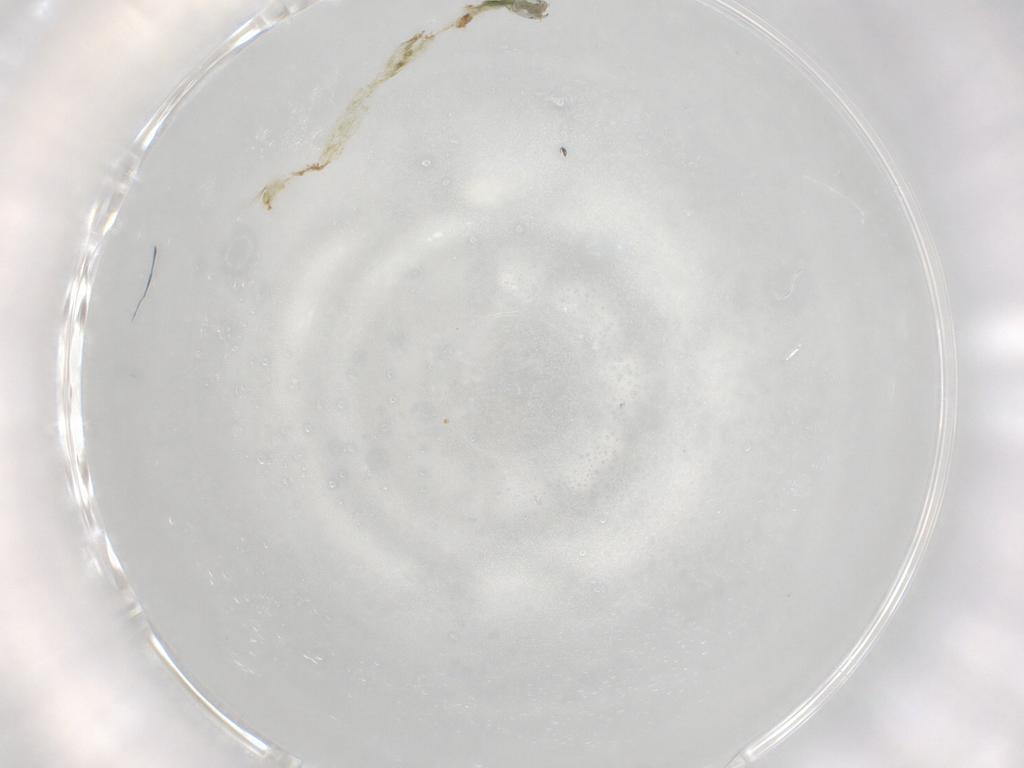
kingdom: Animalia
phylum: Arthropoda
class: Insecta
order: Diptera
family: Chironomidae
